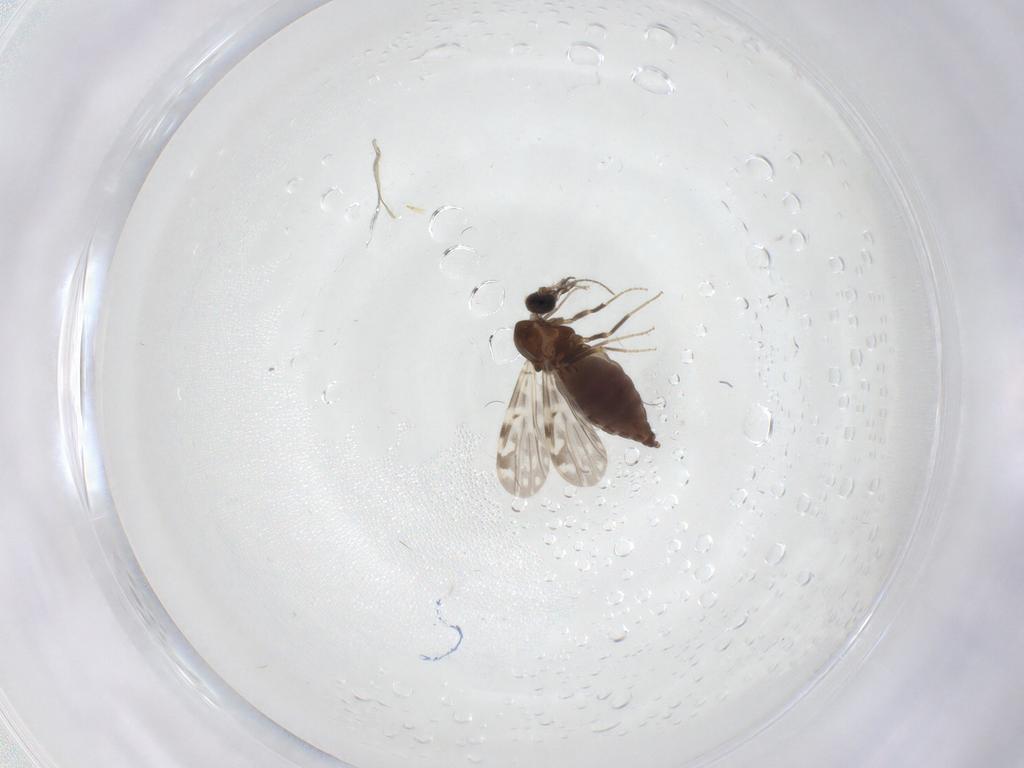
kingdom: Animalia
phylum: Arthropoda
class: Insecta
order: Diptera
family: Ceratopogonidae
